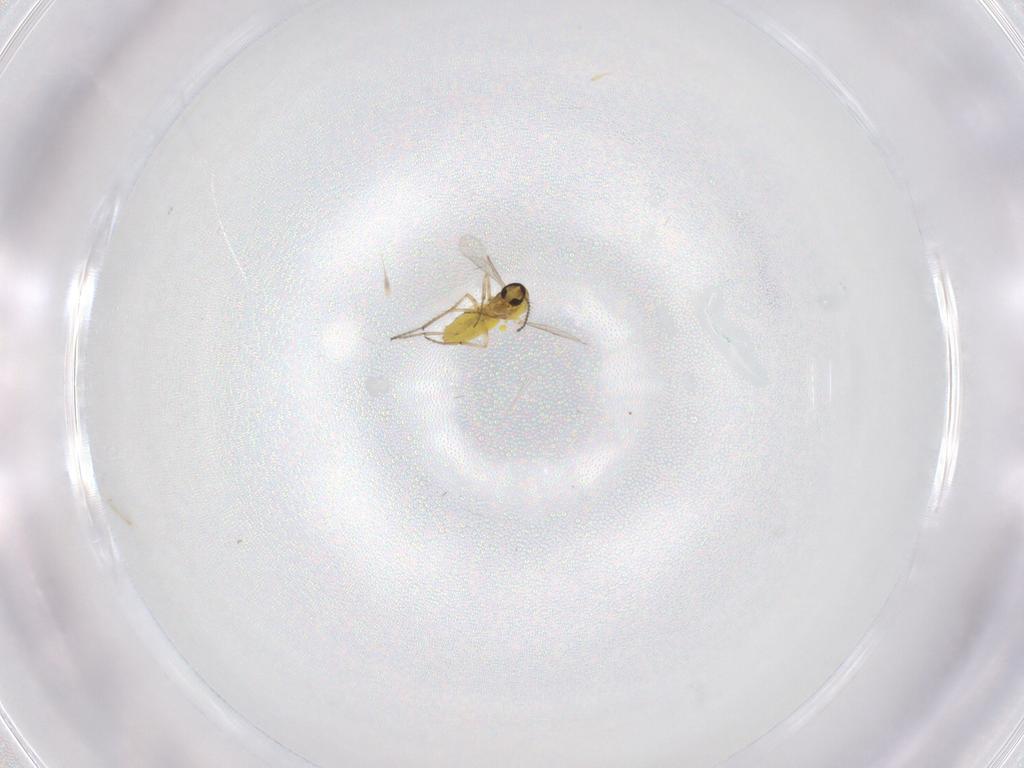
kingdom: Animalia
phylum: Arthropoda
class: Insecta
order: Diptera
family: Ceratopogonidae
